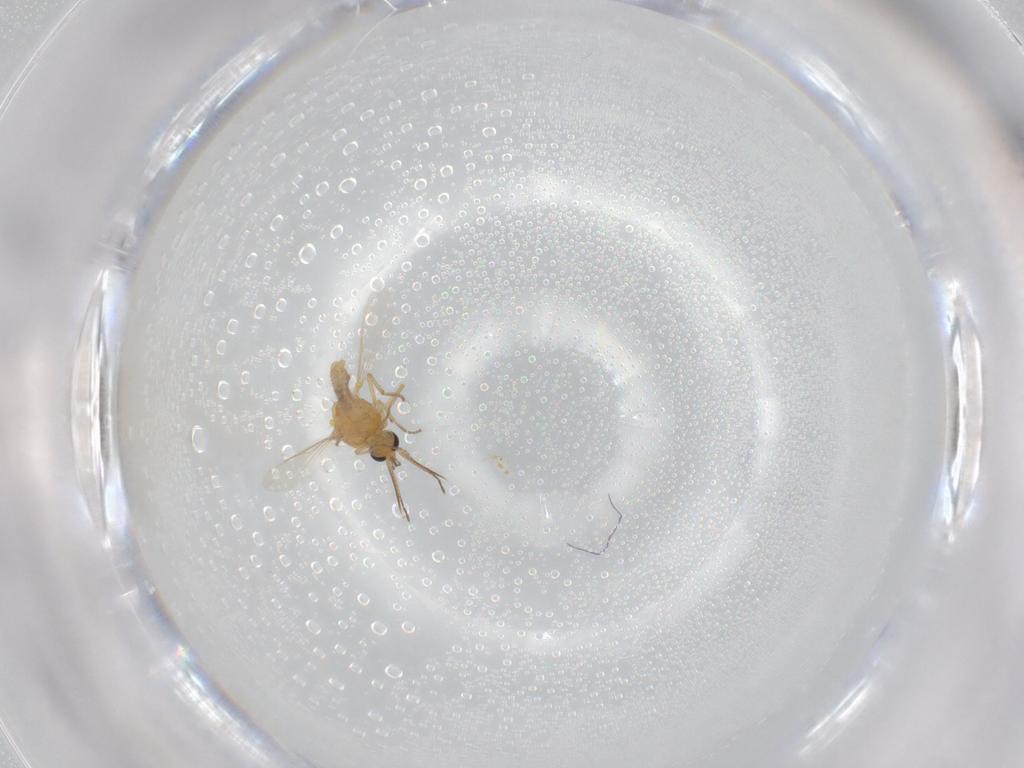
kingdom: Animalia
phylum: Arthropoda
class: Insecta
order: Diptera
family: Ceratopogonidae
